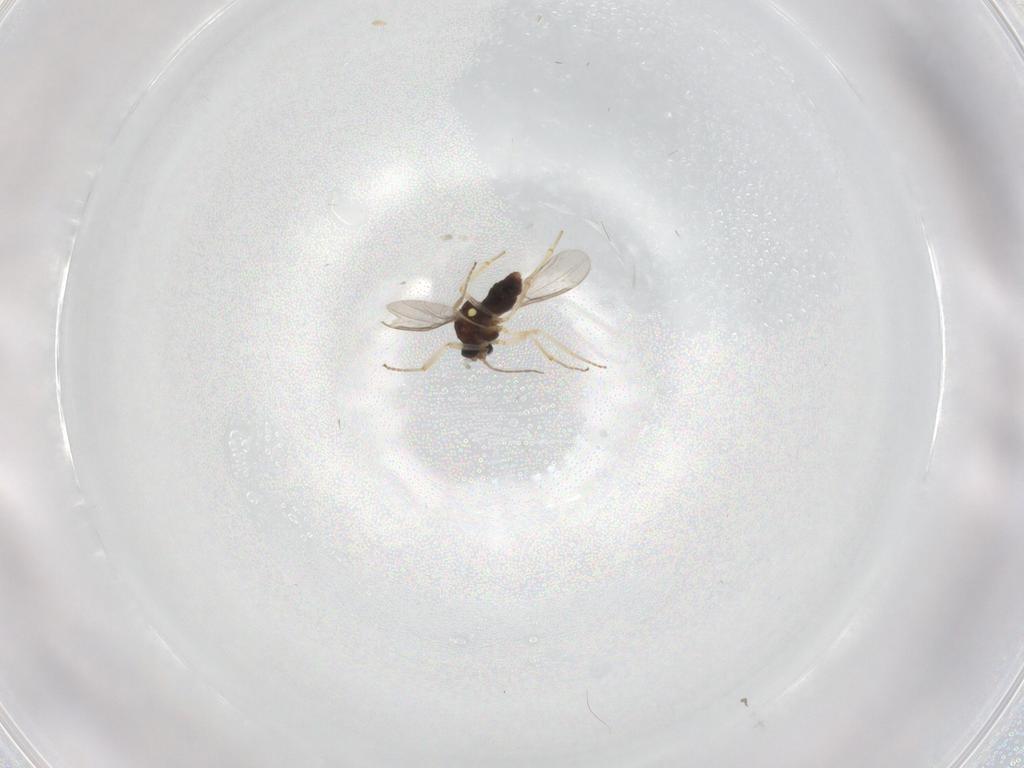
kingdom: Animalia
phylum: Arthropoda
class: Insecta
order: Diptera
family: Ceratopogonidae
